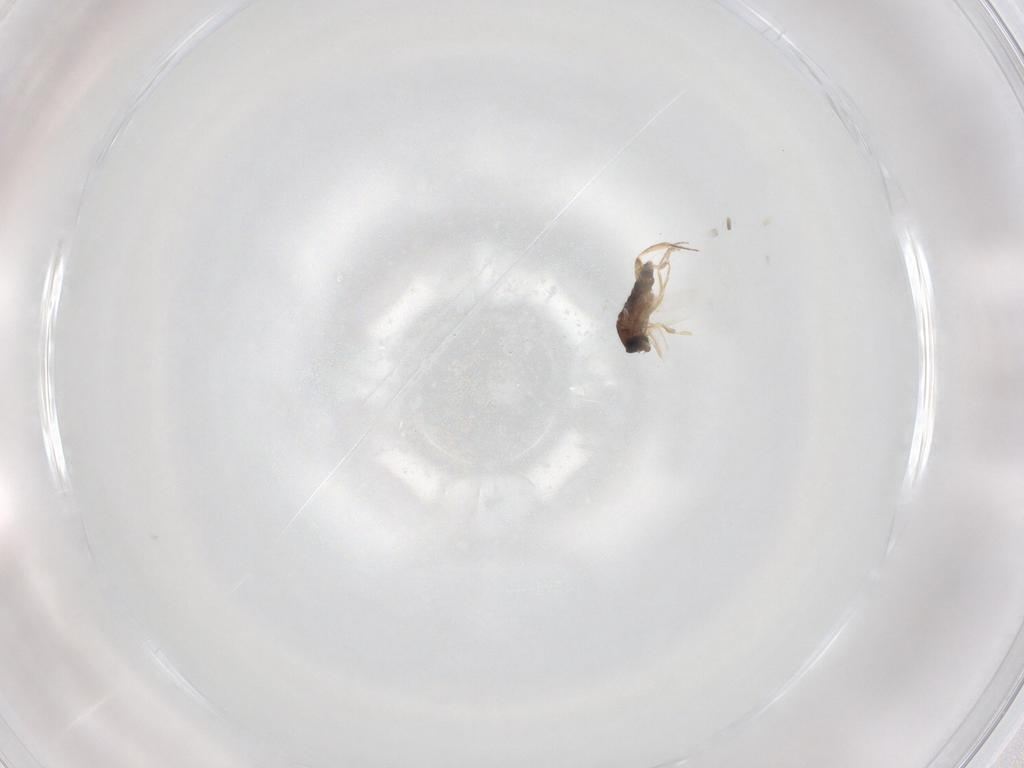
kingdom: Animalia
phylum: Arthropoda
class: Insecta
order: Diptera
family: Phoridae
